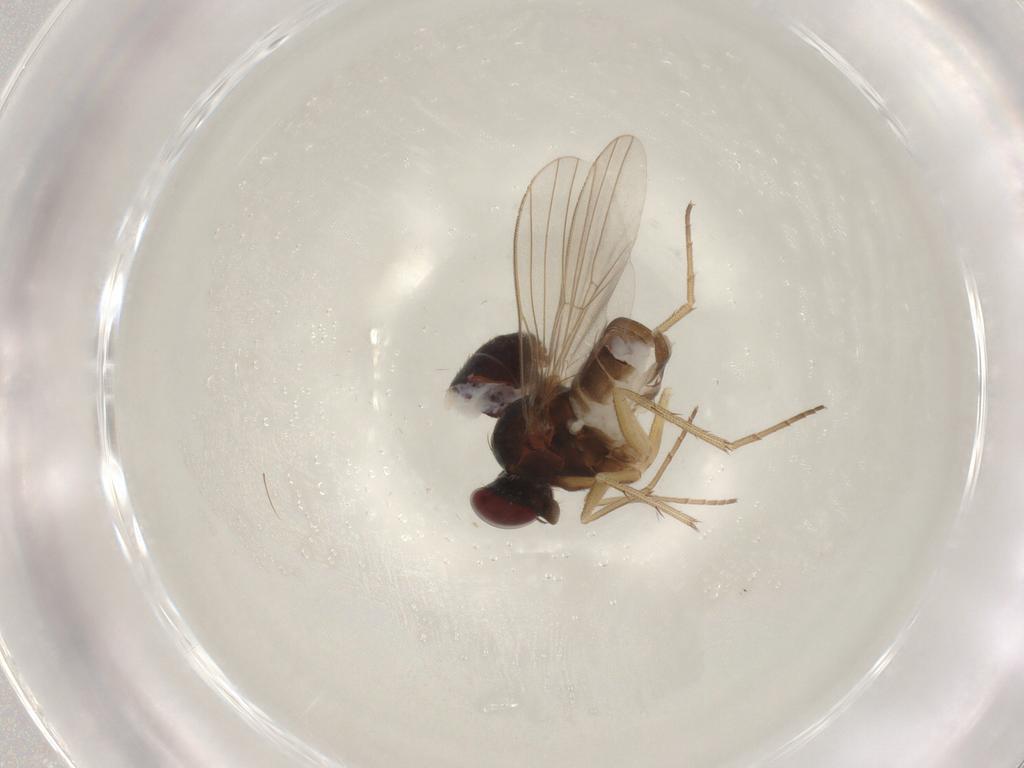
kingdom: Animalia
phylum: Arthropoda
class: Insecta
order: Diptera
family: Dolichopodidae
